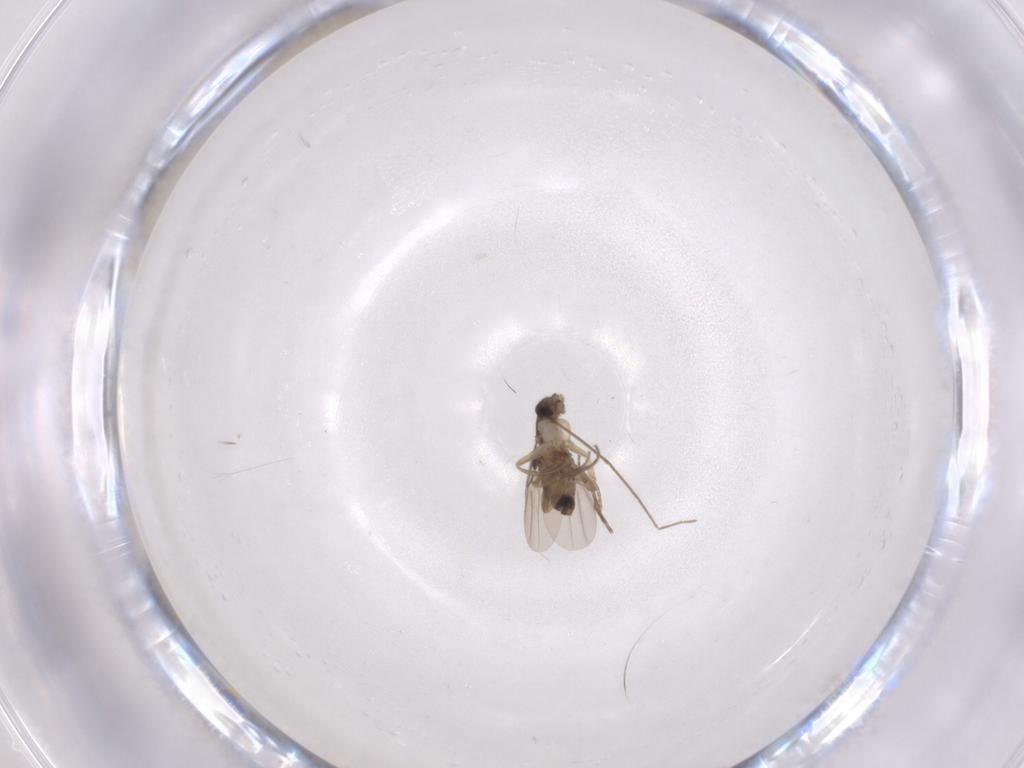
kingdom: Animalia
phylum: Arthropoda
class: Insecta
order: Diptera
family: Phoridae
